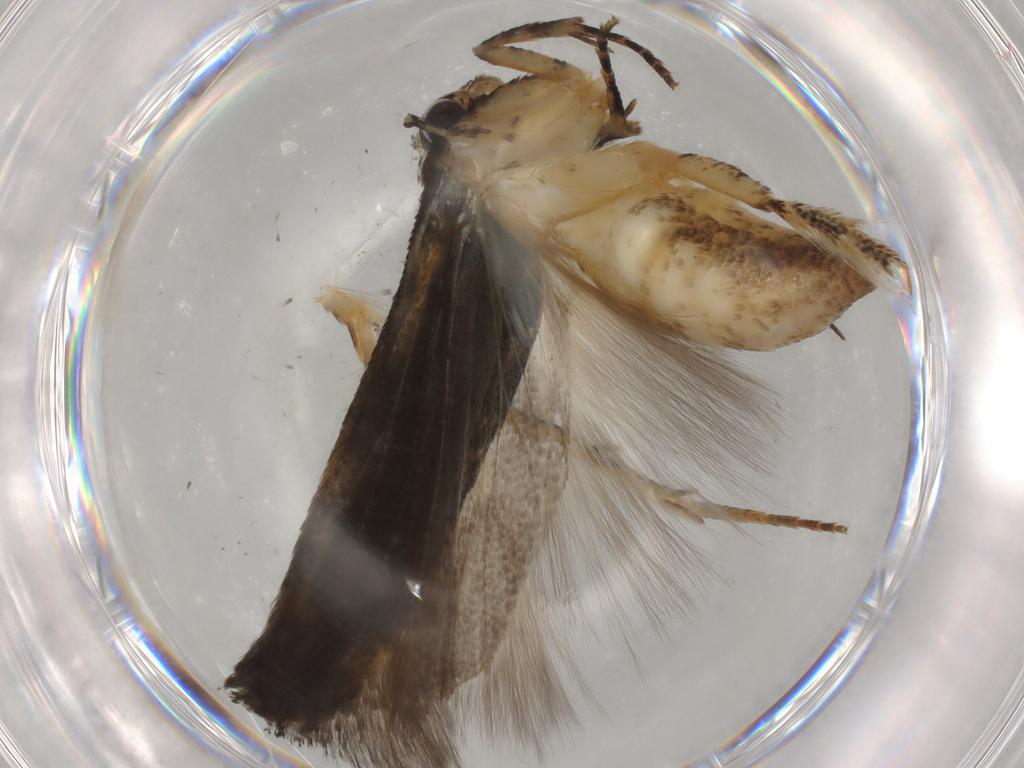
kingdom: Animalia
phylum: Arthropoda
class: Insecta
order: Lepidoptera
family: Gelechiidae
